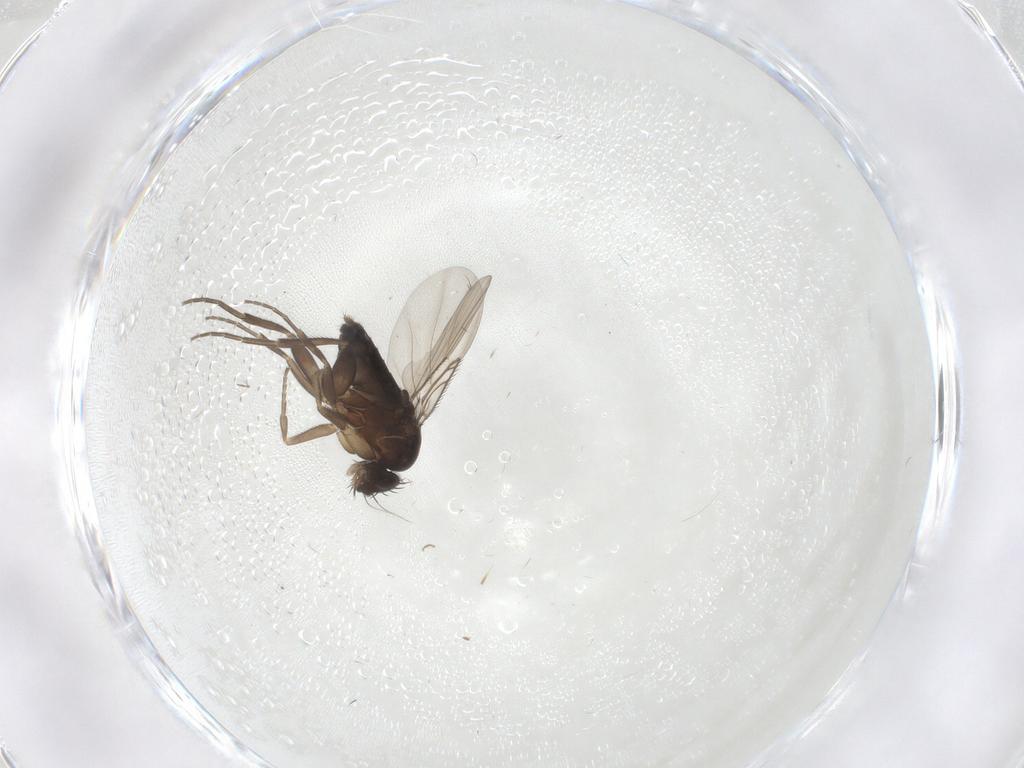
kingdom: Animalia
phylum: Arthropoda
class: Insecta
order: Diptera
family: Phoridae
